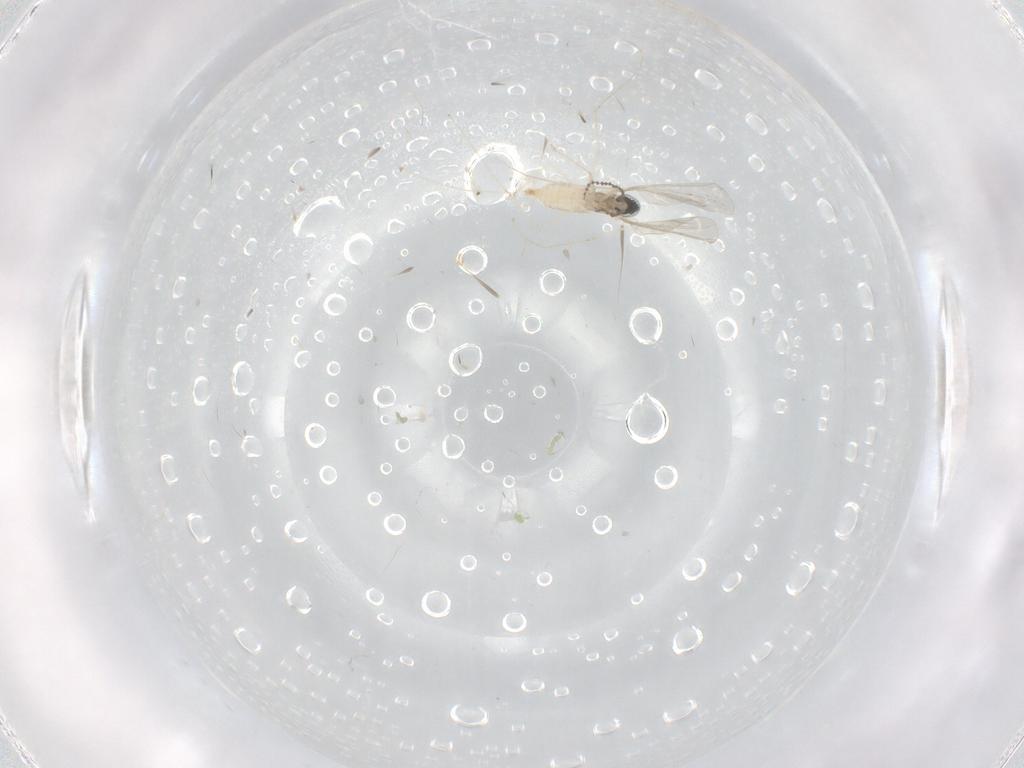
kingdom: Animalia
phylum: Arthropoda
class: Insecta
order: Diptera
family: Cecidomyiidae
